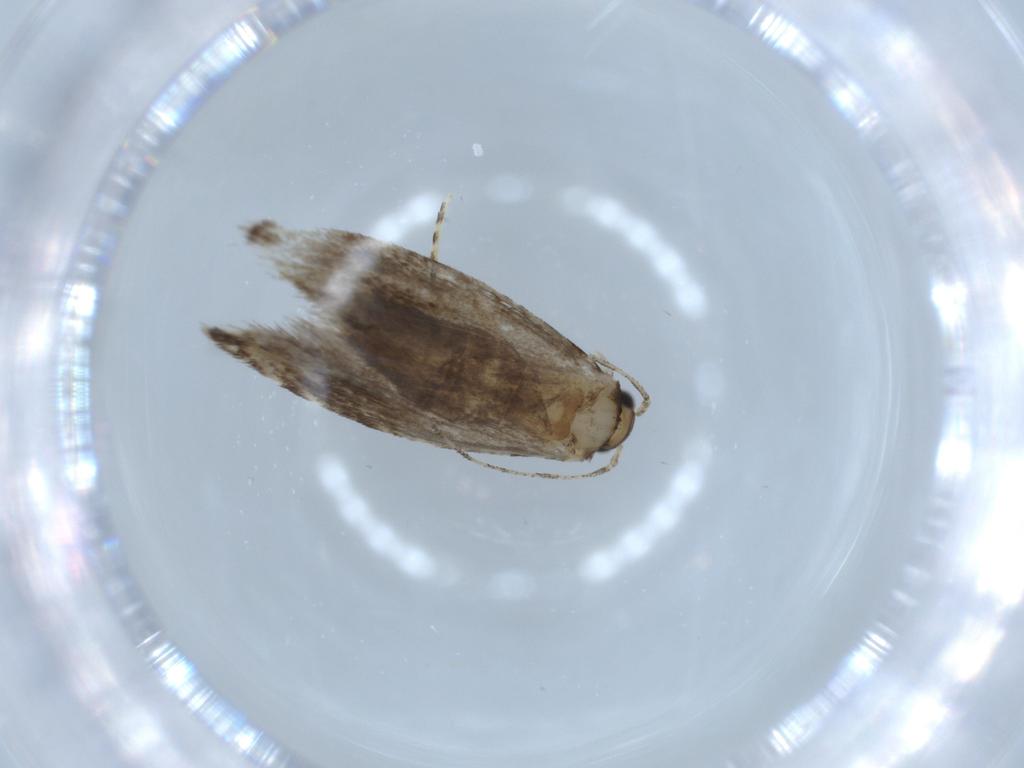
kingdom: Animalia
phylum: Arthropoda
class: Insecta
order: Lepidoptera
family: Tineidae
